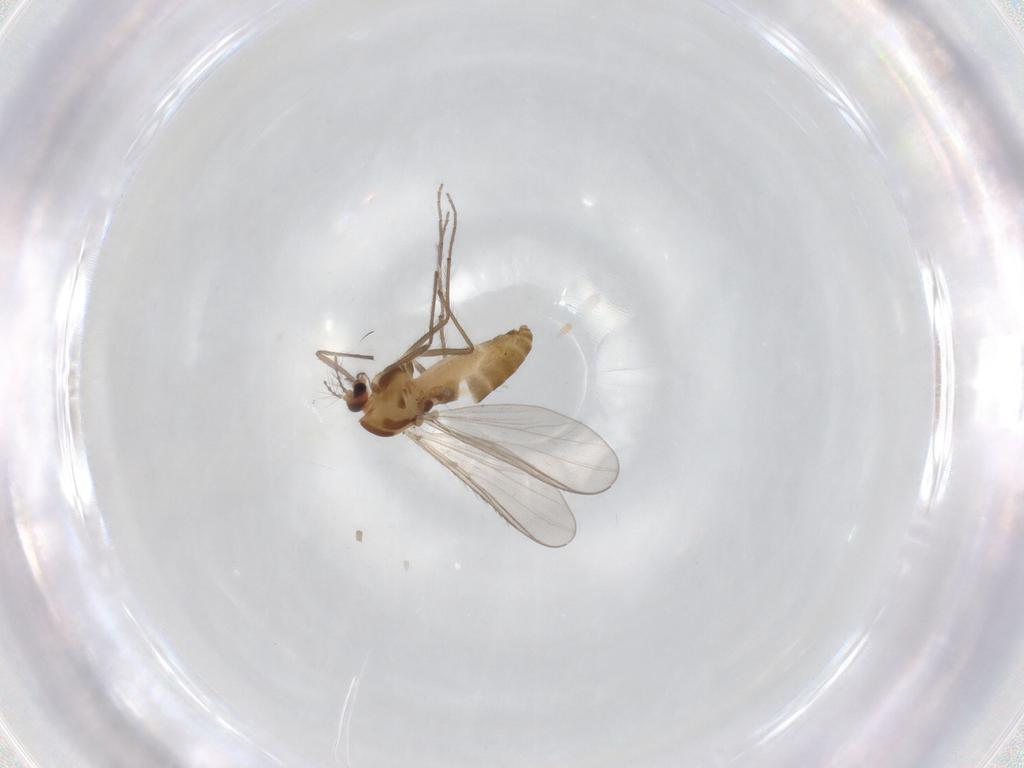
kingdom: Animalia
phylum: Arthropoda
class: Insecta
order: Diptera
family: Chironomidae
